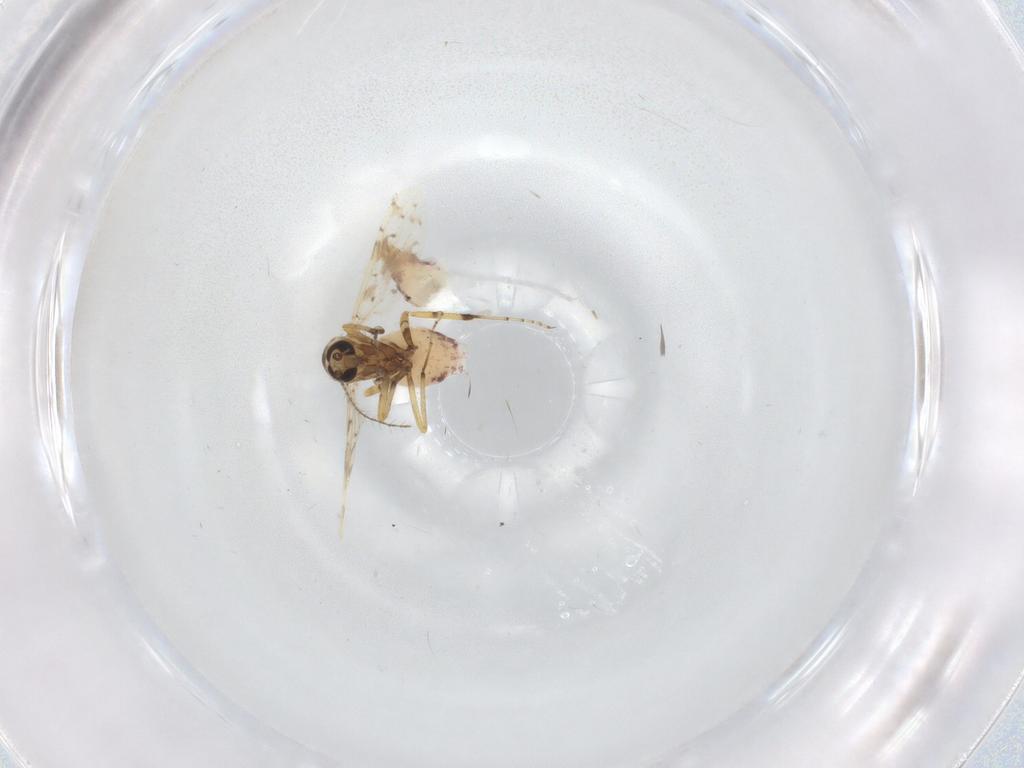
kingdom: Animalia
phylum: Arthropoda
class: Insecta
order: Diptera
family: Ceratopogonidae
